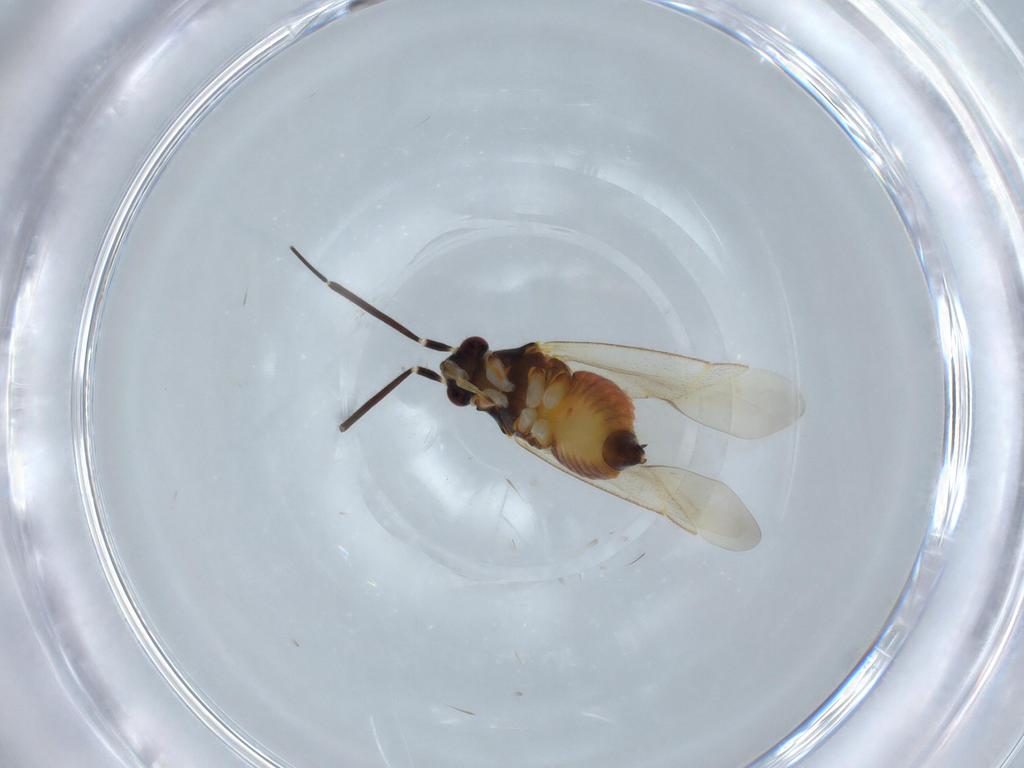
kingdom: Animalia
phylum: Arthropoda
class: Insecta
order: Hemiptera
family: Miridae
